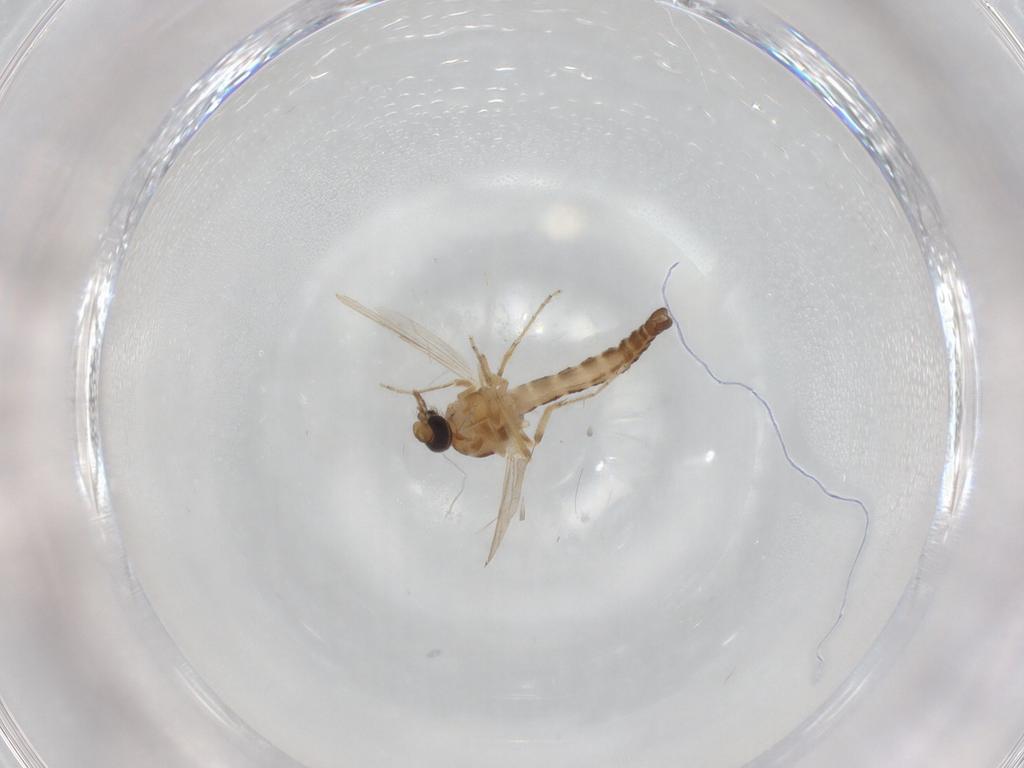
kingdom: Animalia
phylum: Arthropoda
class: Insecta
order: Diptera
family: Ceratopogonidae
